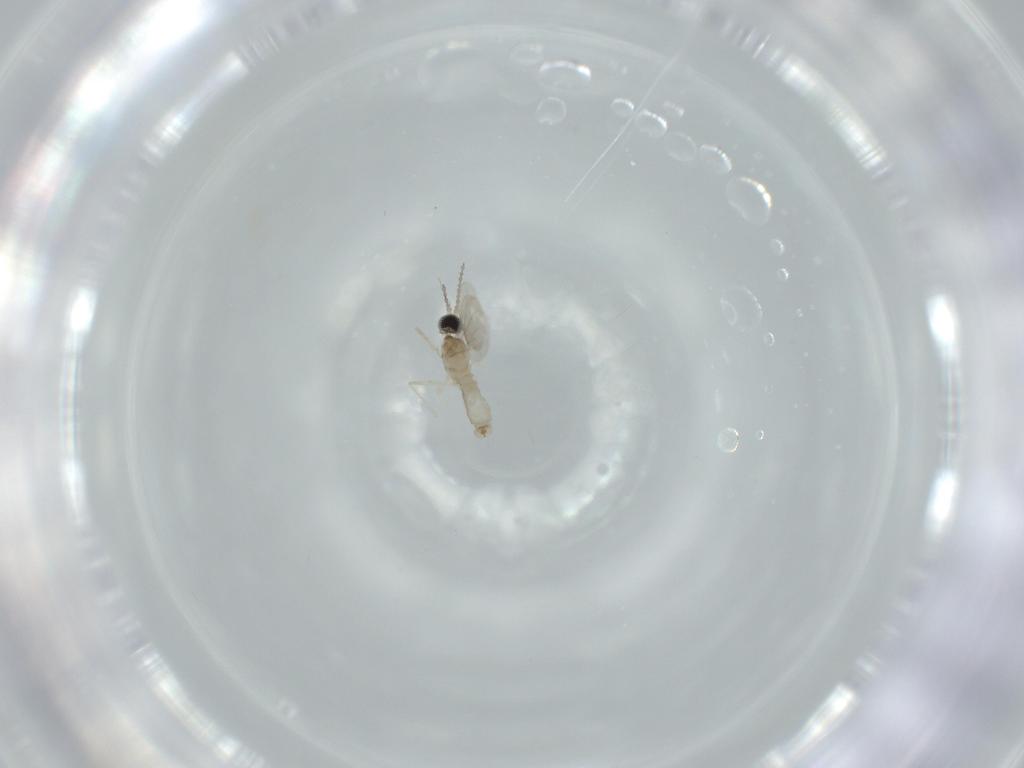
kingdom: Animalia
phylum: Arthropoda
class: Insecta
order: Diptera
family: Cecidomyiidae
